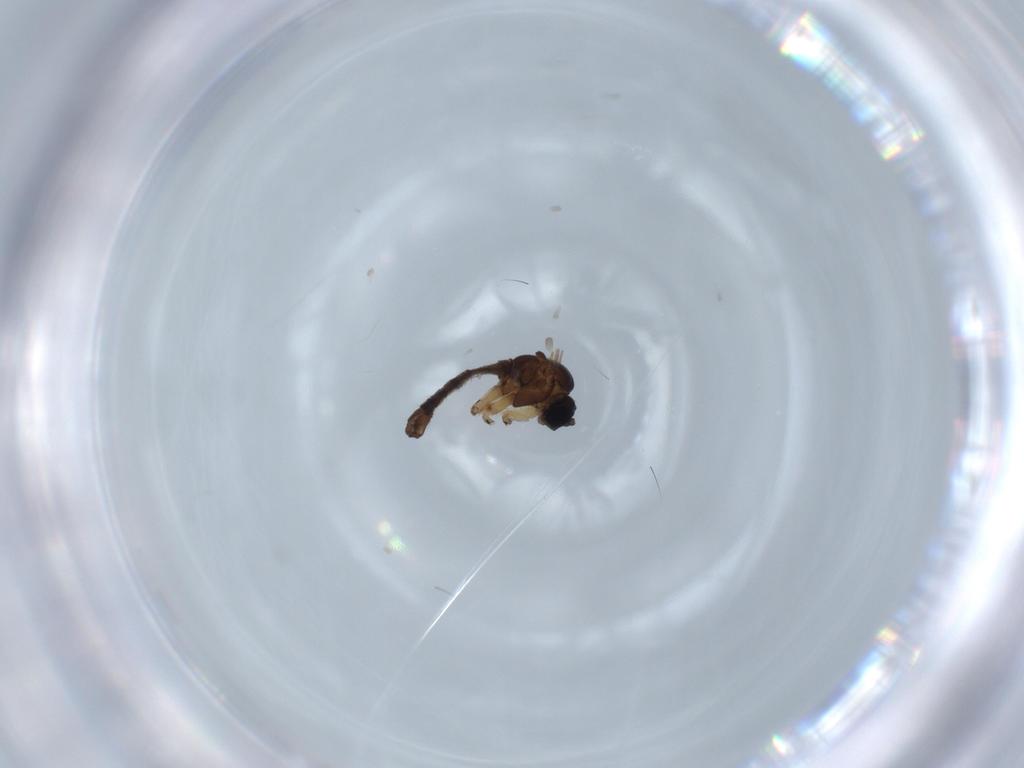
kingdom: Animalia
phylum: Arthropoda
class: Insecta
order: Diptera
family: Sciaridae
